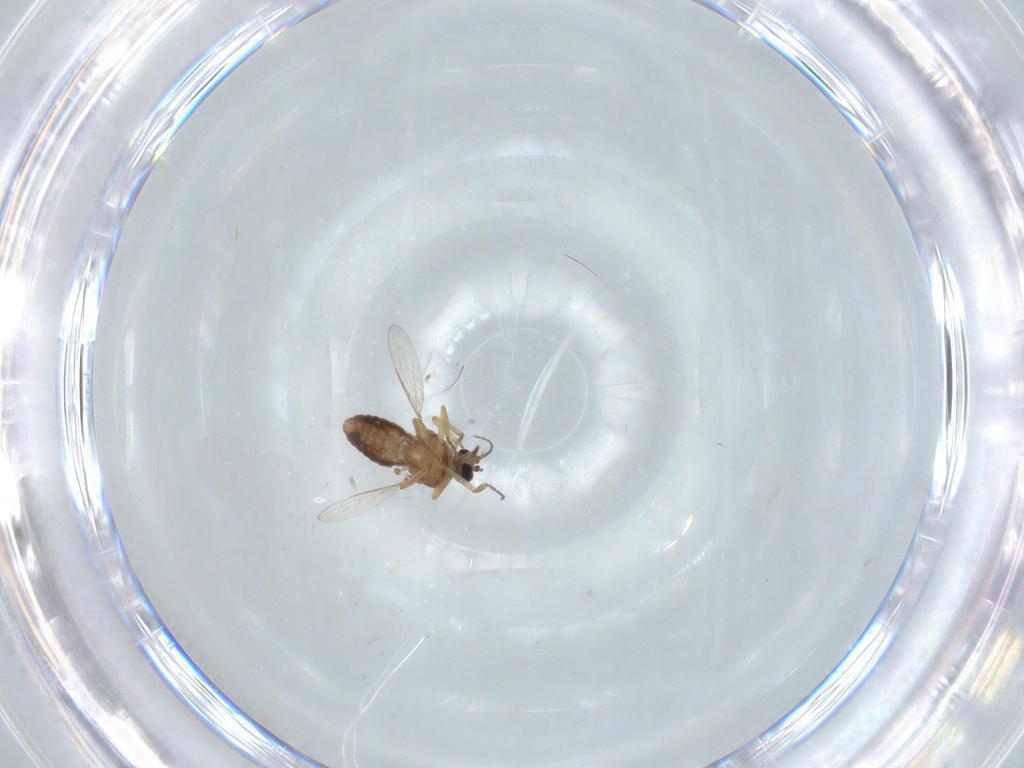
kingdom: Animalia
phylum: Arthropoda
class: Insecta
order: Diptera
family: Ceratopogonidae
